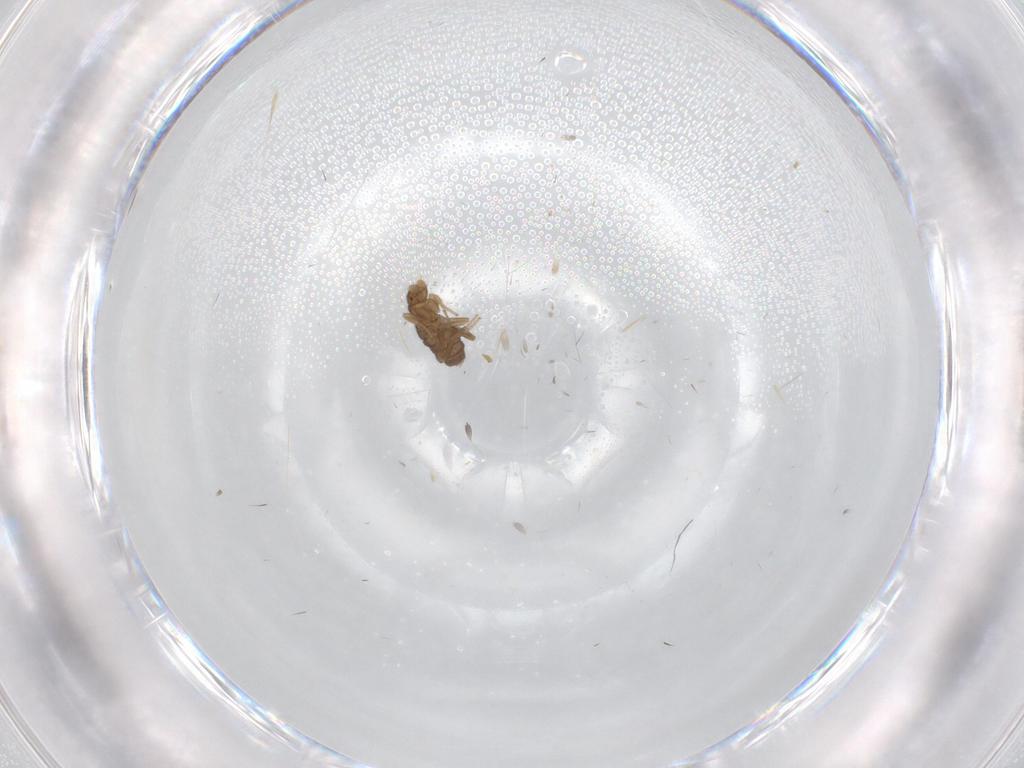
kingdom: Animalia
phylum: Arthropoda
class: Insecta
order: Diptera
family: Phoridae
